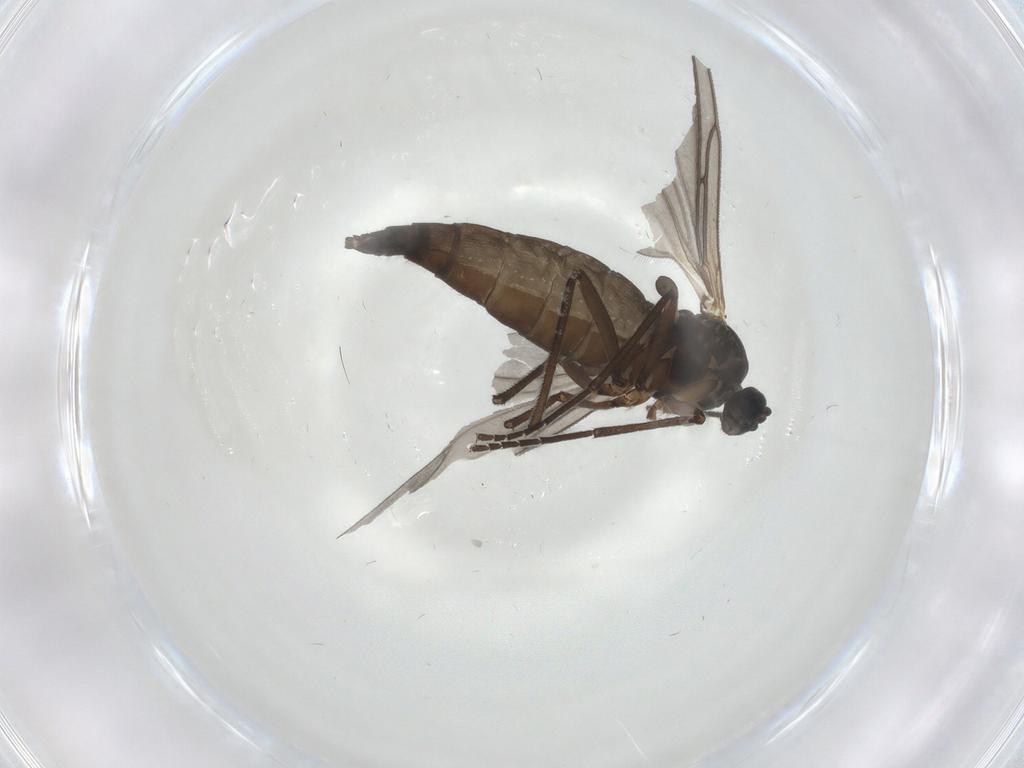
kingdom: Animalia
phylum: Arthropoda
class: Insecta
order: Diptera
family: Sciaridae
